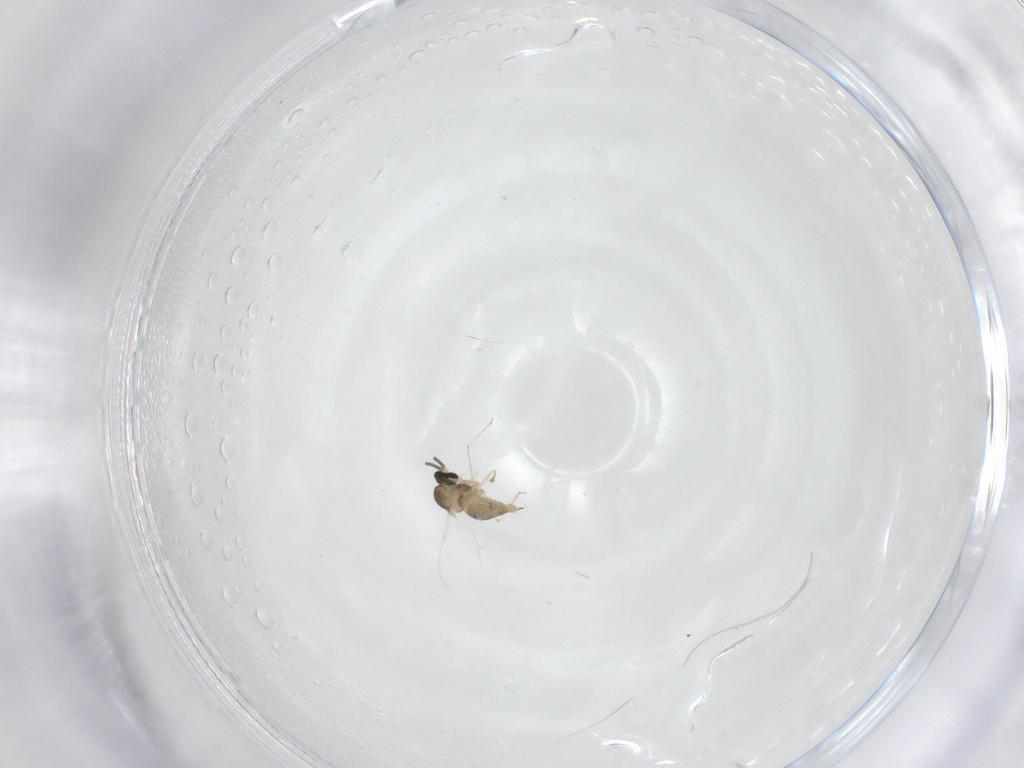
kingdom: Animalia
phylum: Arthropoda
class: Insecta
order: Diptera
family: Cecidomyiidae
